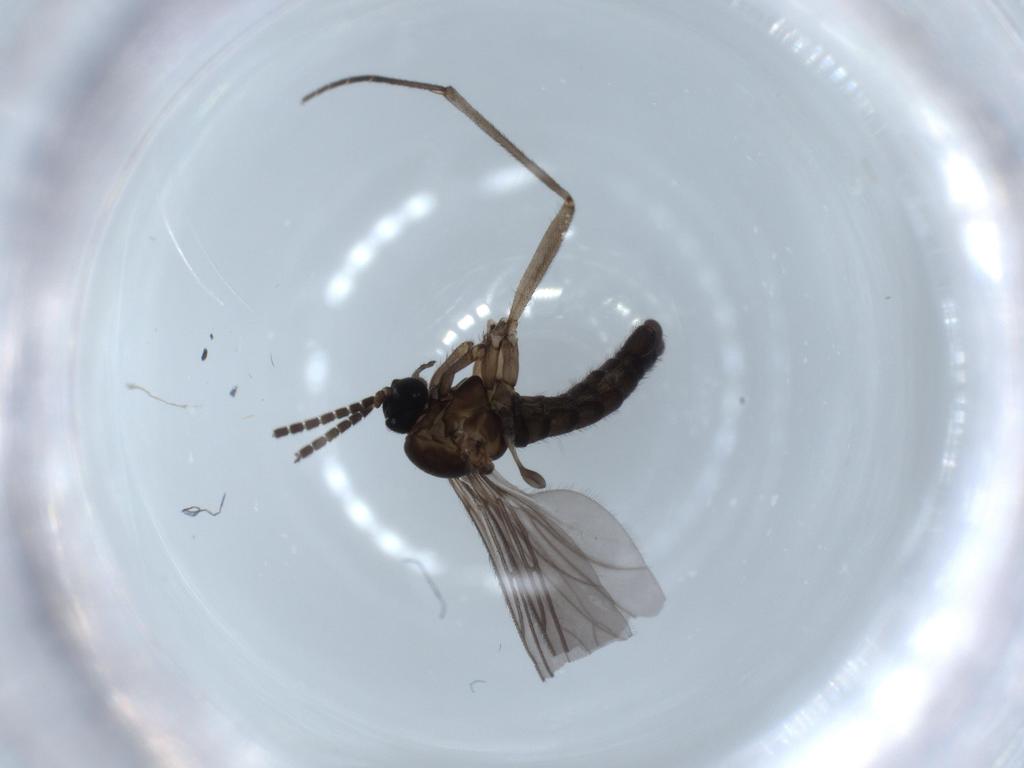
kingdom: Animalia
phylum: Arthropoda
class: Insecta
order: Diptera
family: Sciaridae
